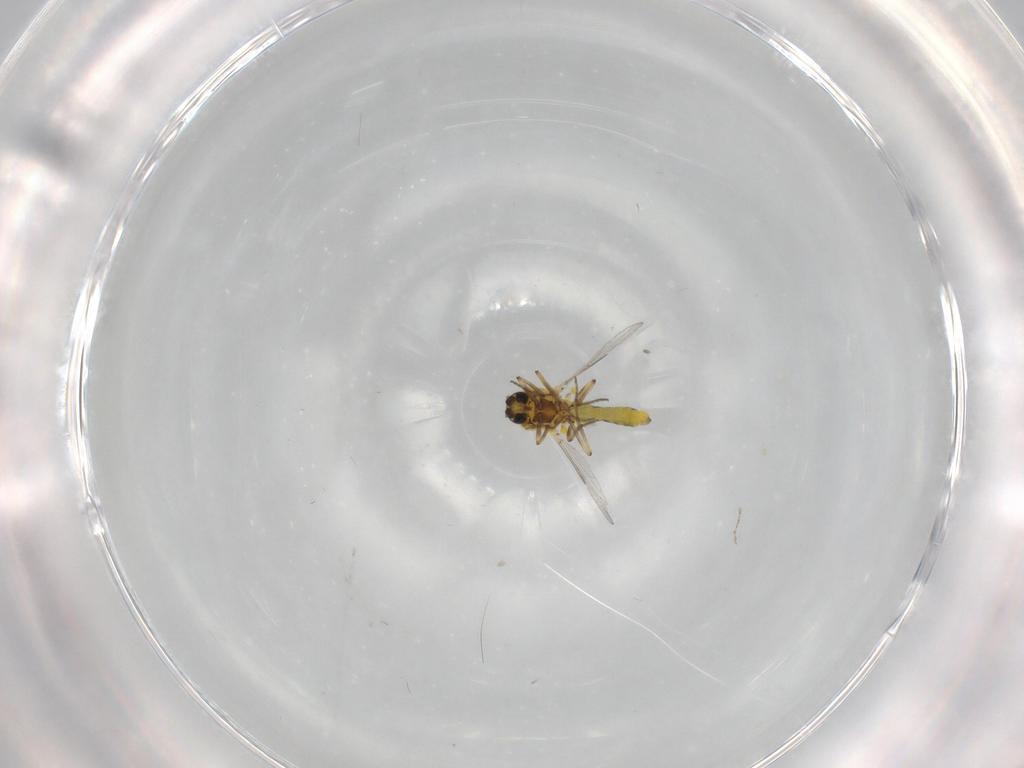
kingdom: Animalia
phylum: Arthropoda
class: Insecta
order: Diptera
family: Ceratopogonidae
